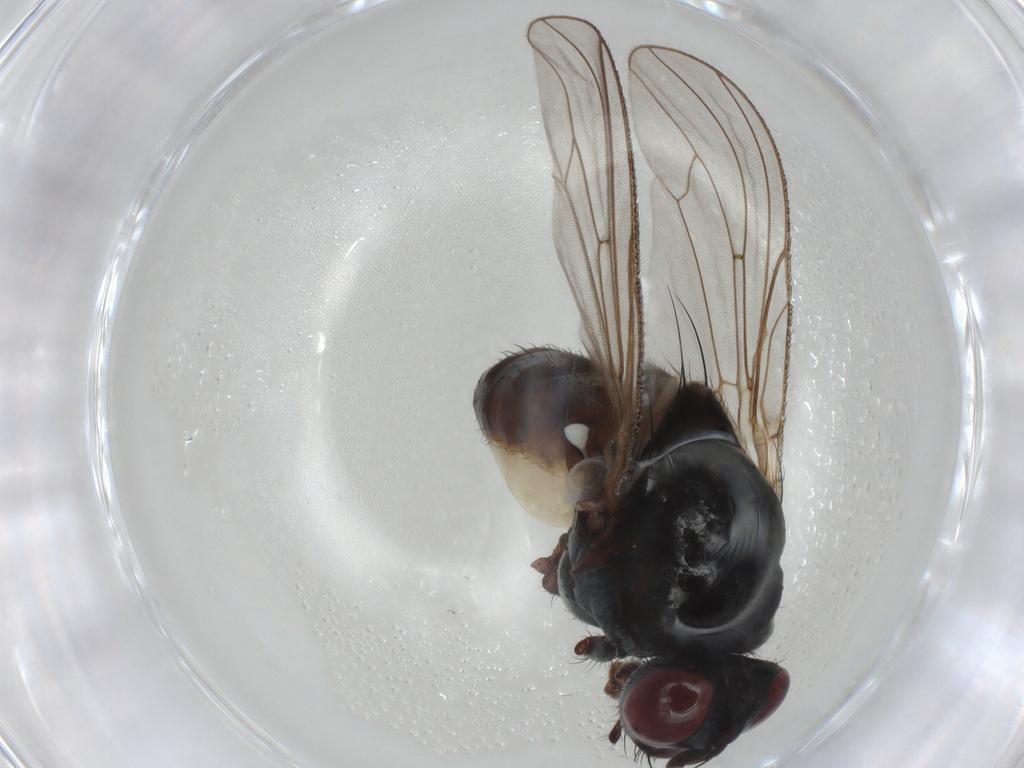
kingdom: Animalia
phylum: Arthropoda
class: Insecta
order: Diptera
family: Anthomyiidae
